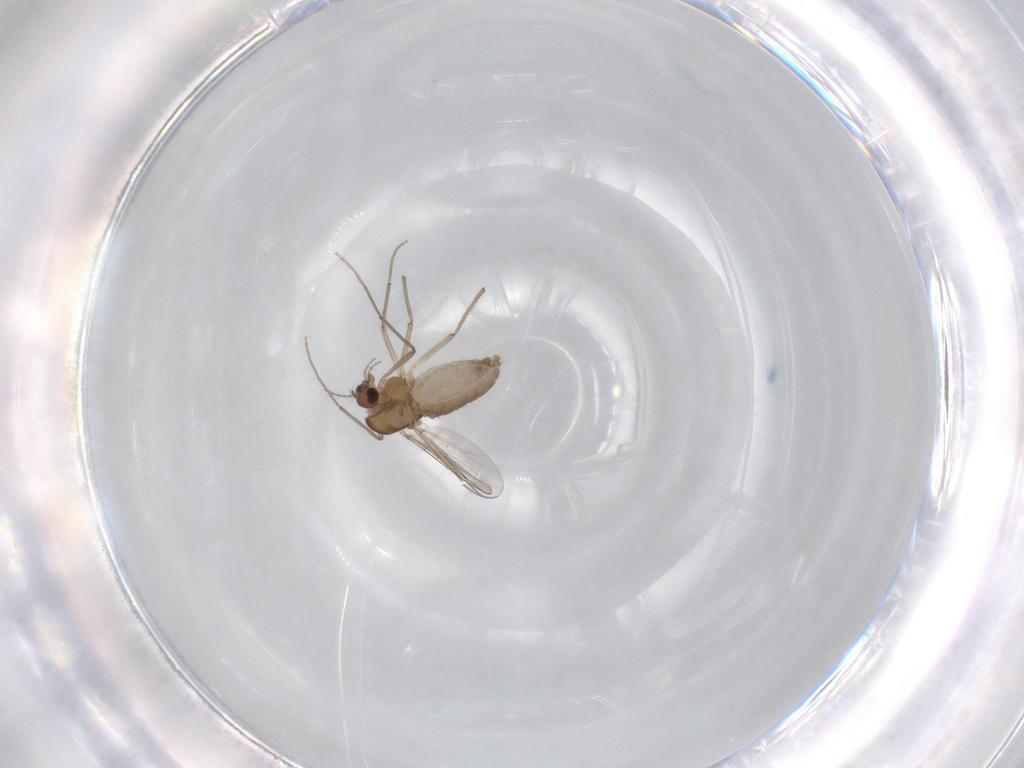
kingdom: Animalia
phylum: Arthropoda
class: Insecta
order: Diptera
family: Chironomidae
